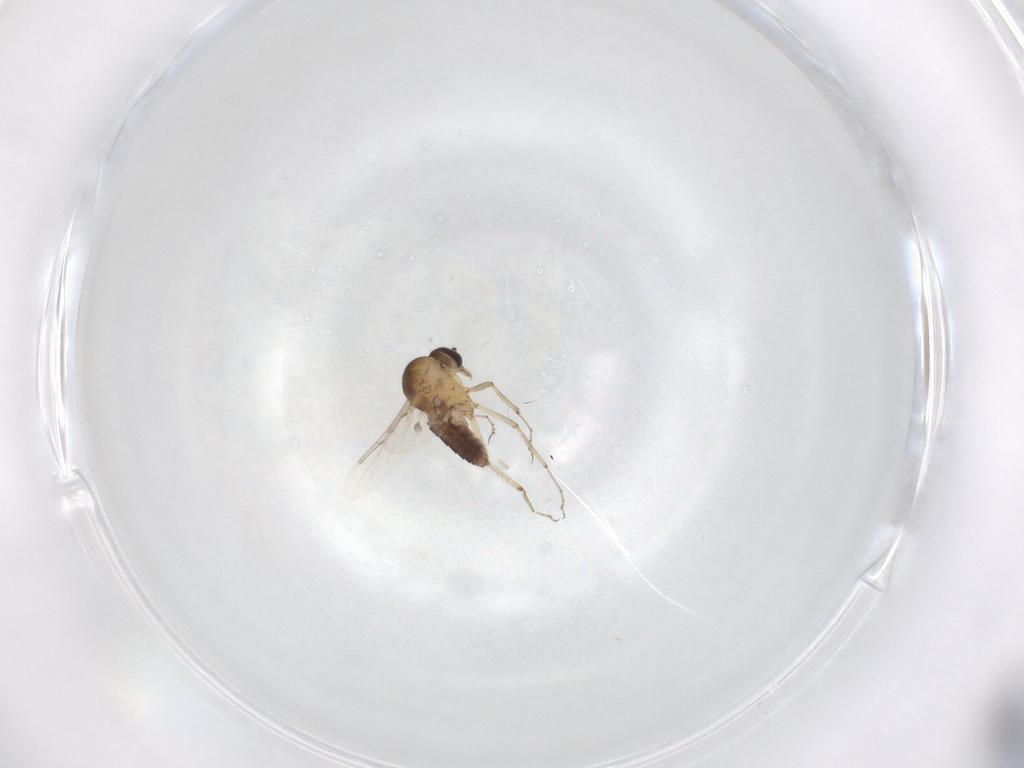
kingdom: Animalia
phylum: Arthropoda
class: Insecta
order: Diptera
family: Ceratopogonidae
